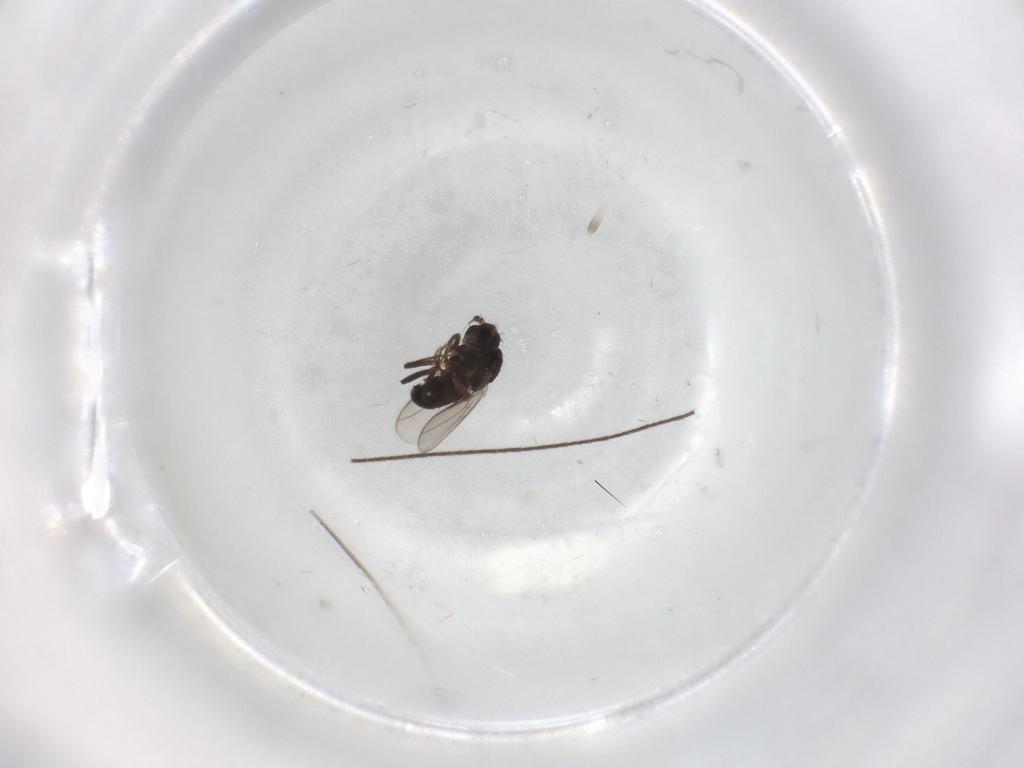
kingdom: Animalia
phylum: Arthropoda
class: Insecta
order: Diptera
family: Sphaeroceridae
